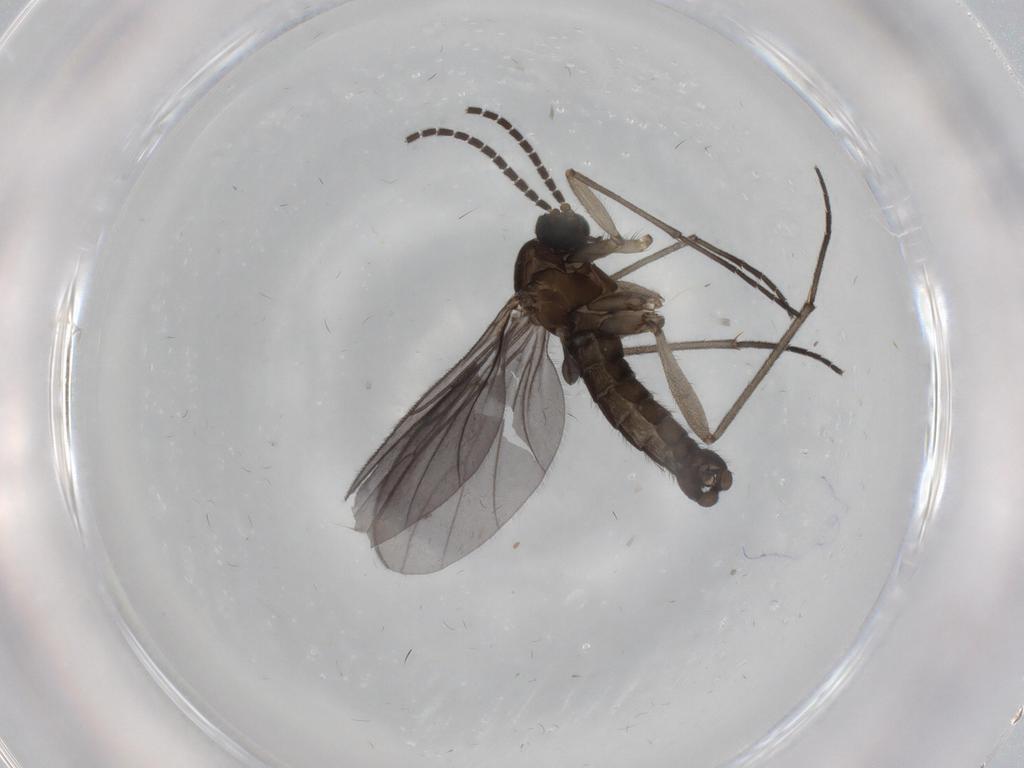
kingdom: Animalia
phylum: Arthropoda
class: Insecta
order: Diptera
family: Sciaridae
